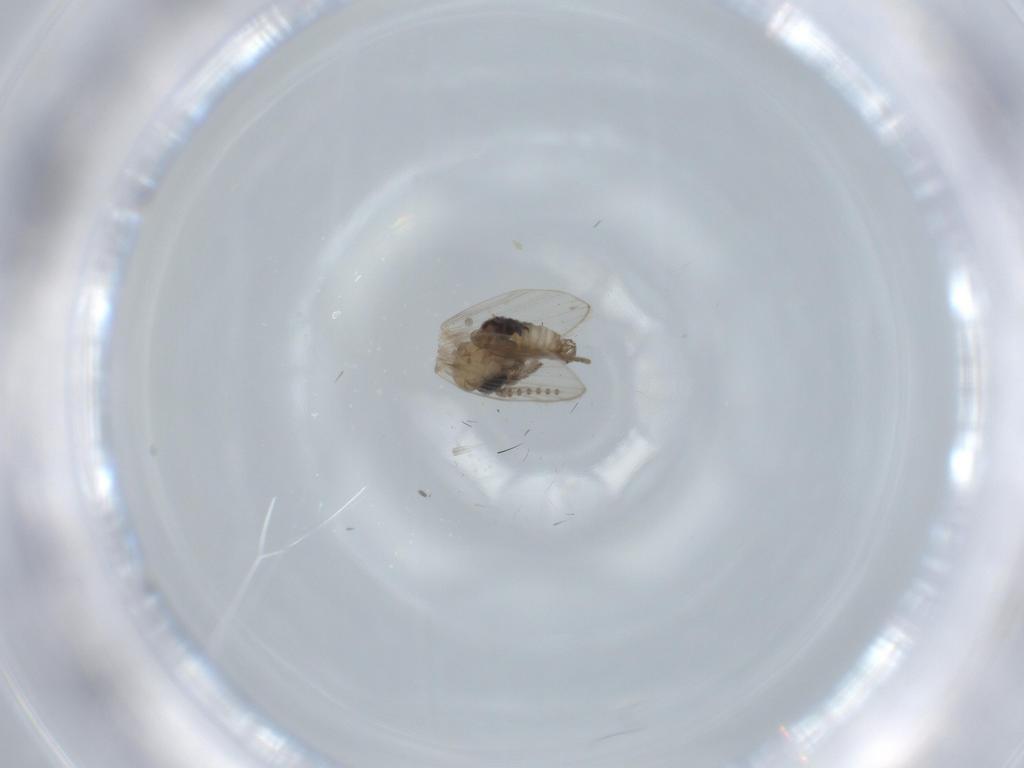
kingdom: Animalia
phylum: Arthropoda
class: Insecta
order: Diptera
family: Psychodidae
